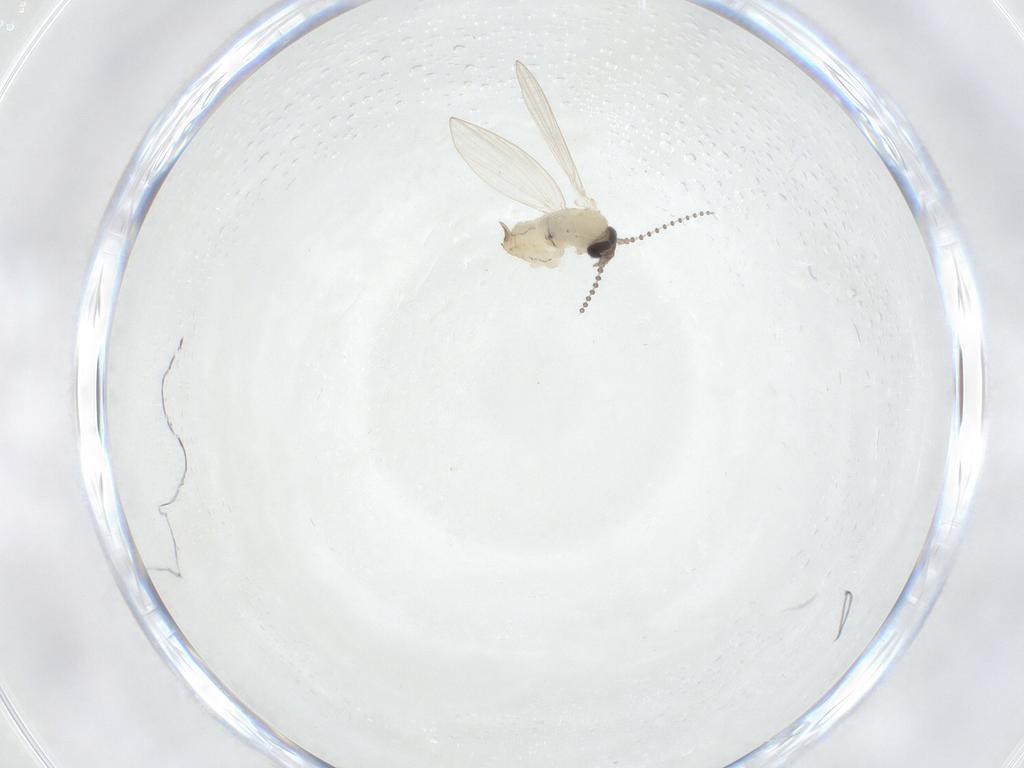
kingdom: Animalia
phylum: Arthropoda
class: Insecta
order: Diptera
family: Psychodidae
